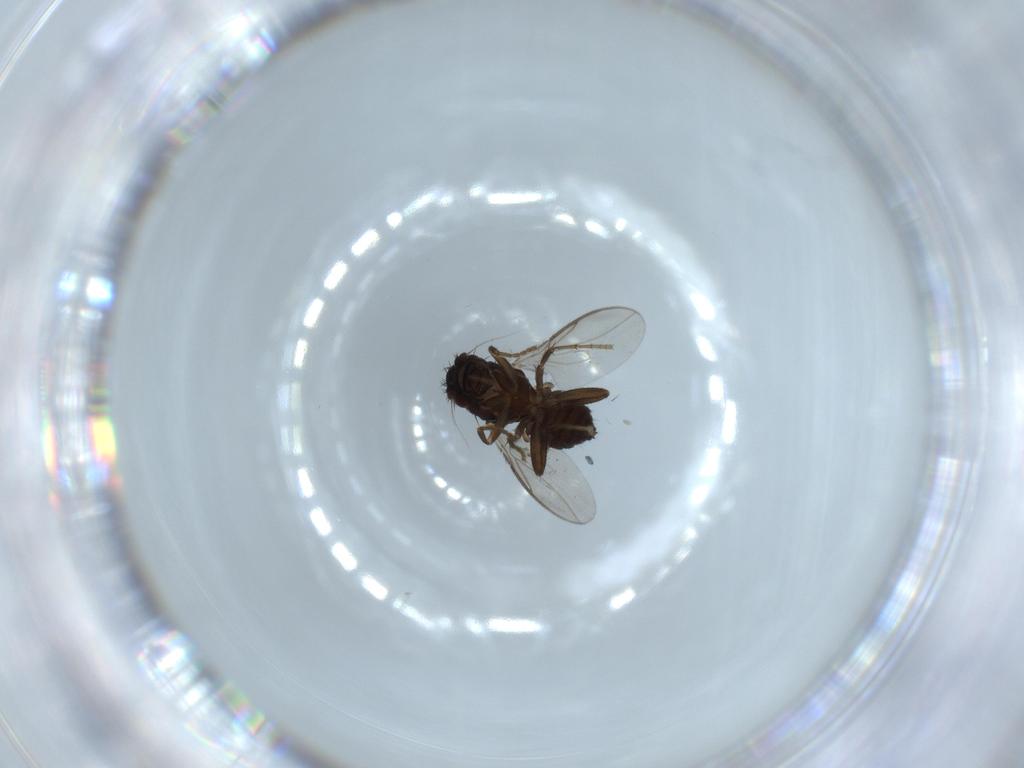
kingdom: Animalia
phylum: Arthropoda
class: Insecta
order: Diptera
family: Sphaeroceridae
